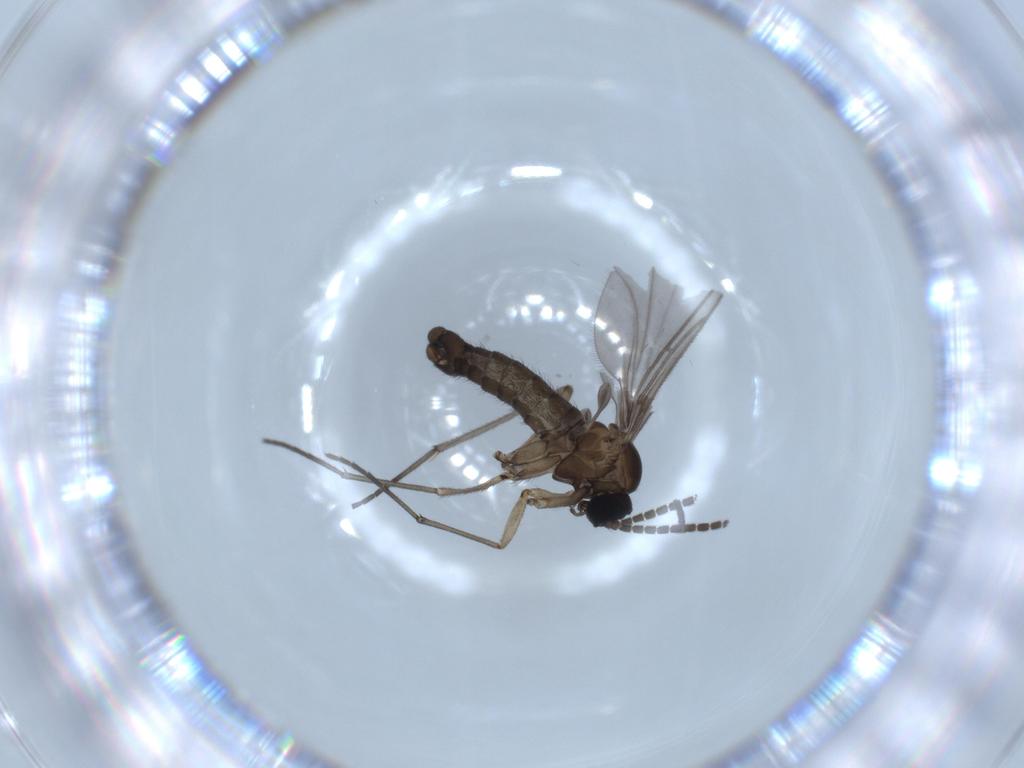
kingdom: Animalia
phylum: Arthropoda
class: Insecta
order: Diptera
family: Sciaridae
